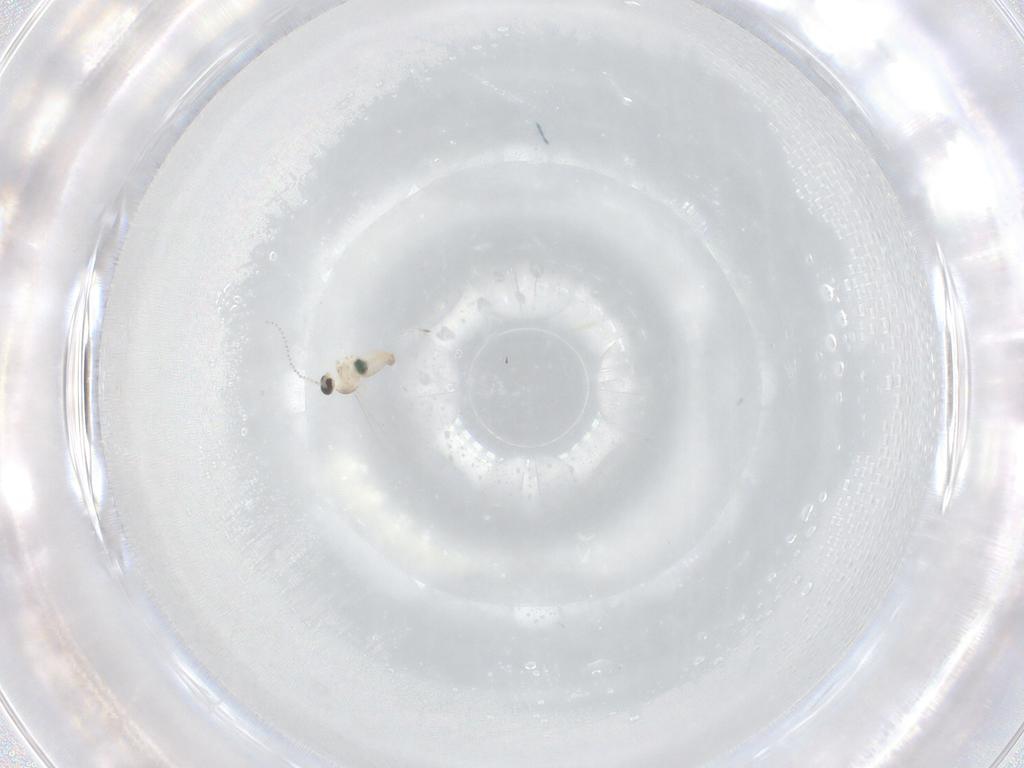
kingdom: Animalia
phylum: Arthropoda
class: Insecta
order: Diptera
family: Cecidomyiidae
